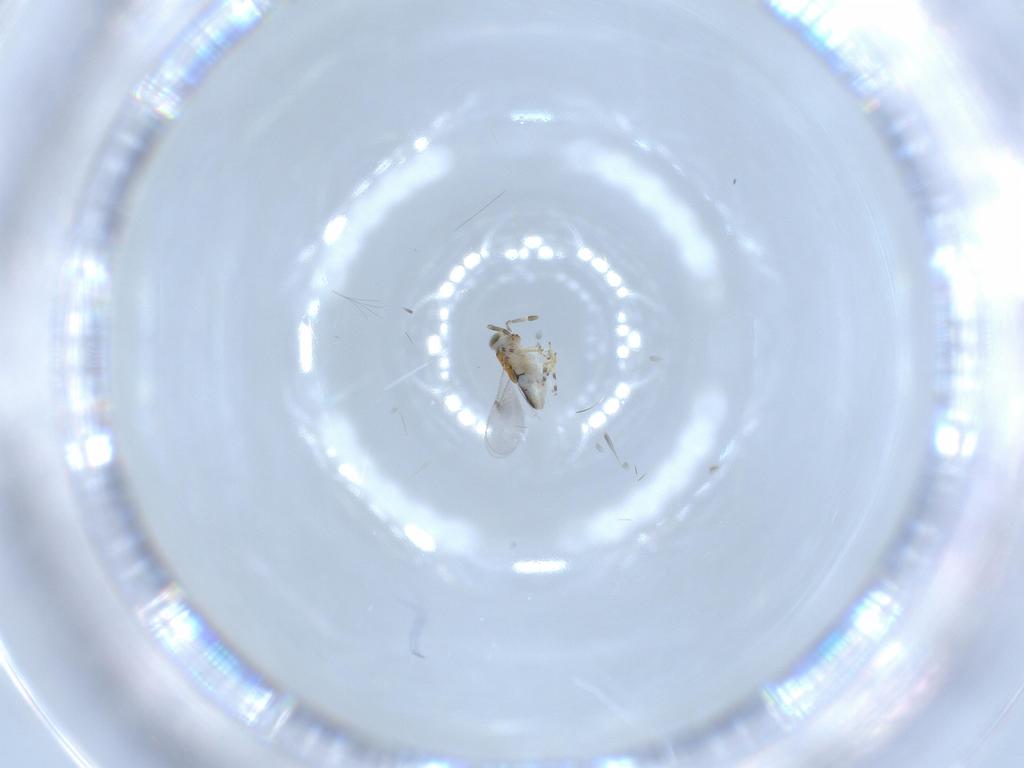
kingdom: Animalia
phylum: Arthropoda
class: Insecta
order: Hymenoptera
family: Encyrtidae
